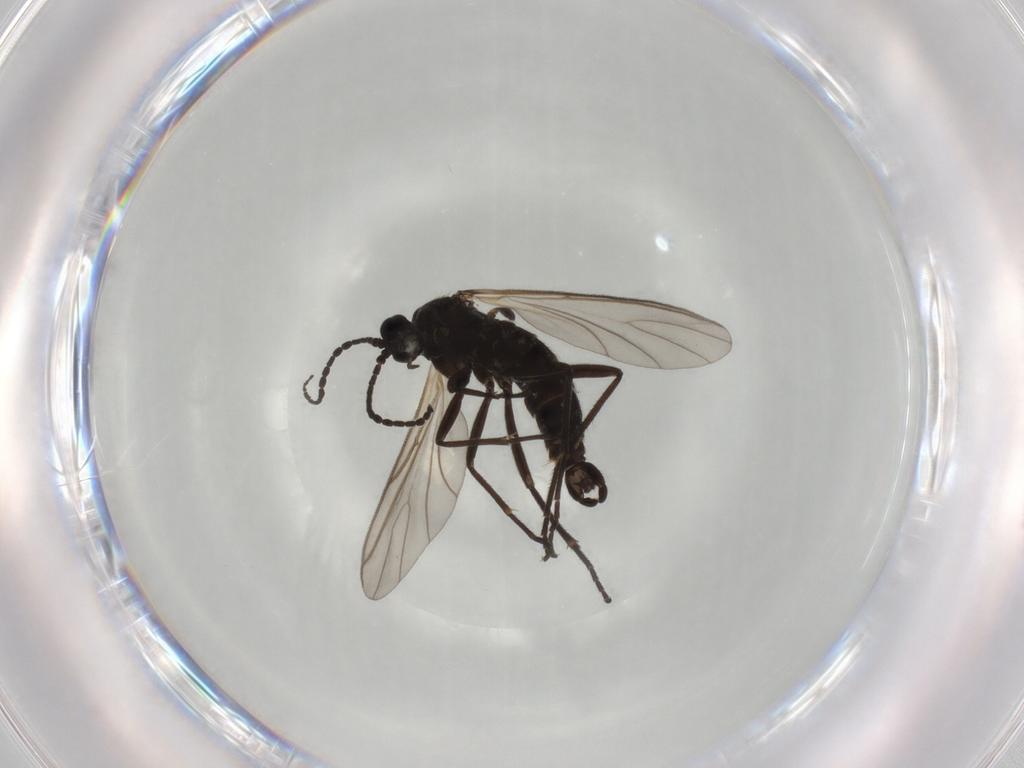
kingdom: Animalia
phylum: Arthropoda
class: Insecta
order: Diptera
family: Sciaridae
